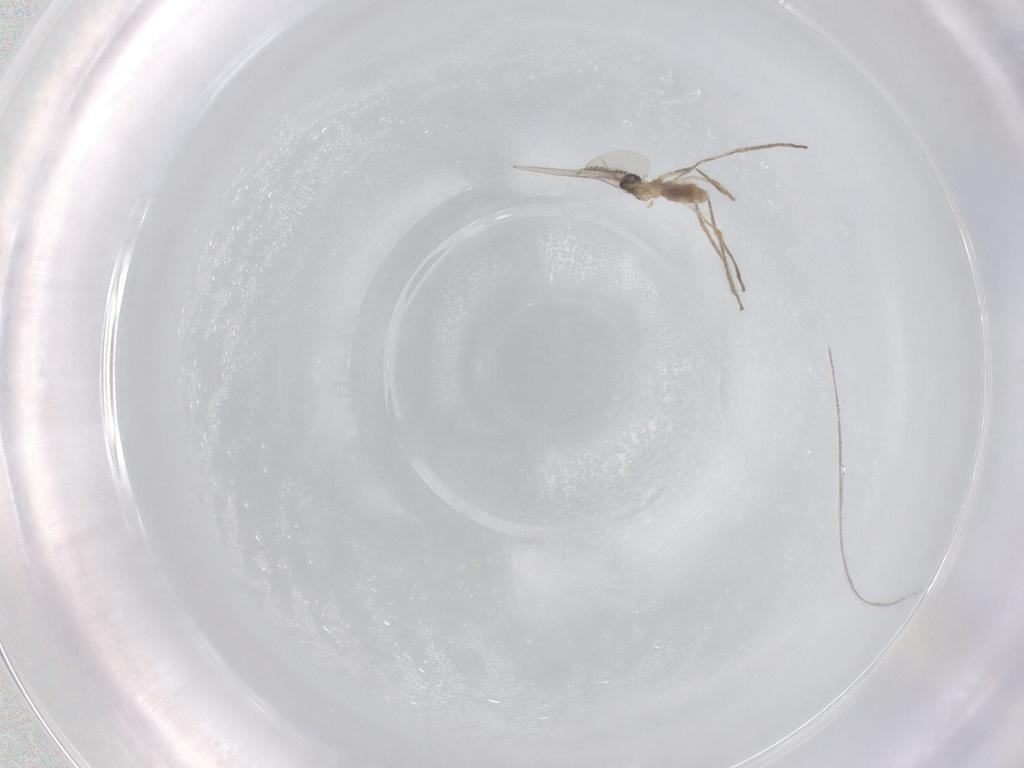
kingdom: Animalia
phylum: Arthropoda
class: Insecta
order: Diptera
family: Cecidomyiidae
